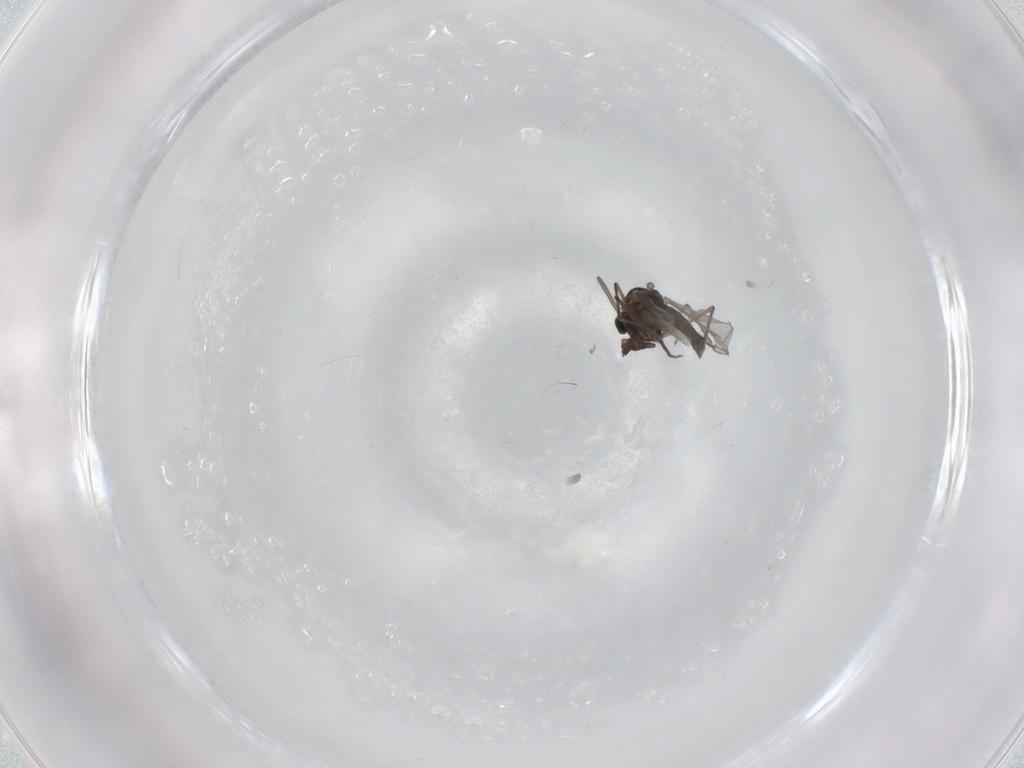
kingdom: Animalia
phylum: Arthropoda
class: Insecta
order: Diptera
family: Chironomidae
